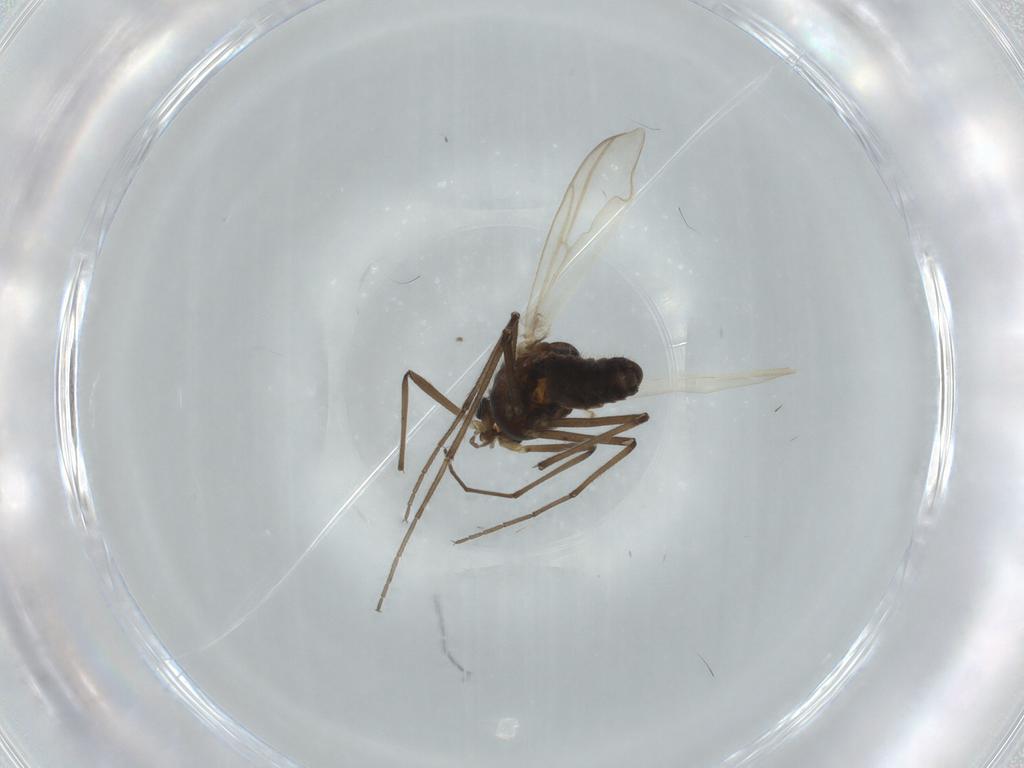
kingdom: Animalia
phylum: Arthropoda
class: Insecta
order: Diptera
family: Culicidae
